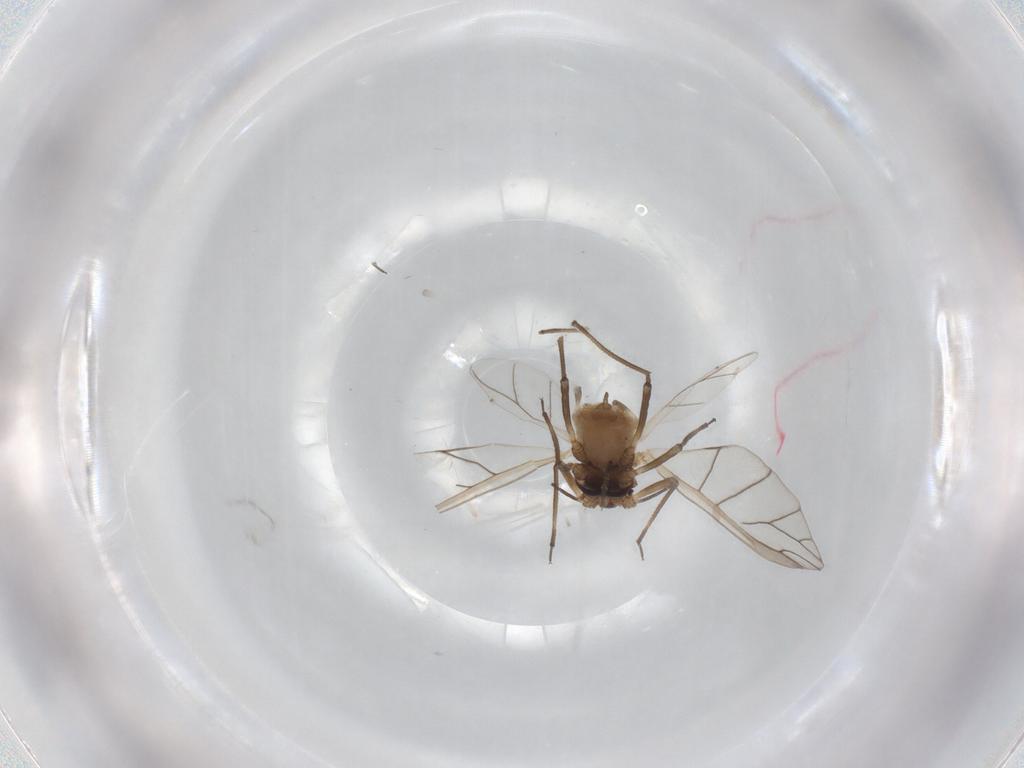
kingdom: Animalia
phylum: Arthropoda
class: Insecta
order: Hemiptera
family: Aphididae
